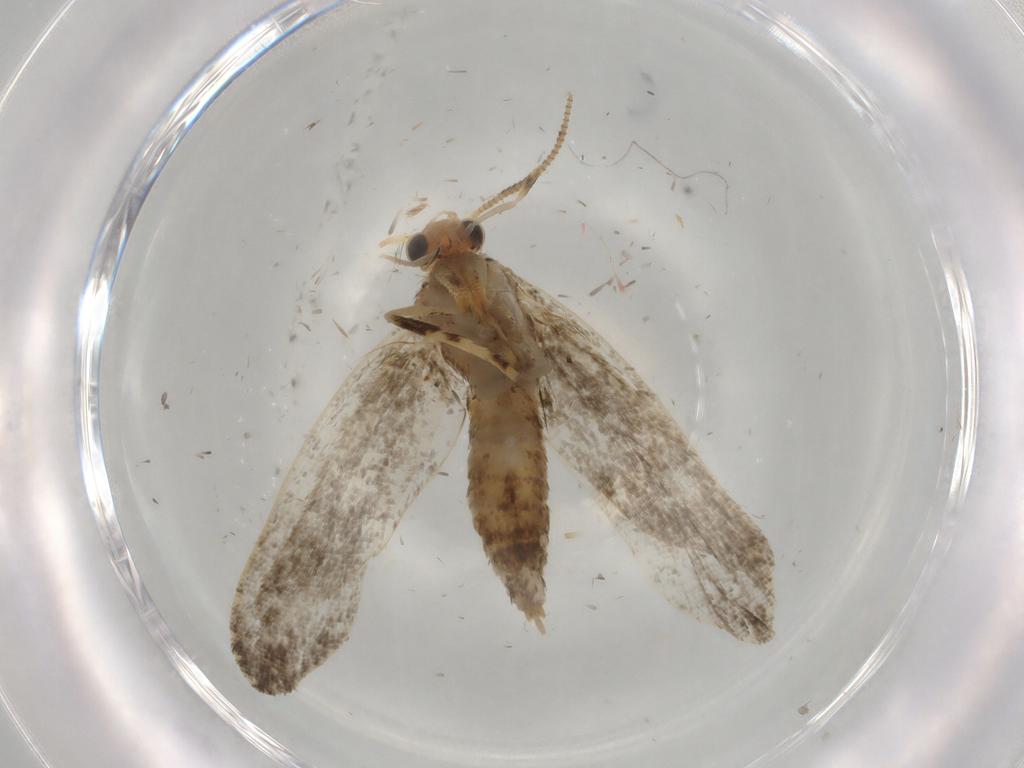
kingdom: Animalia
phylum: Arthropoda
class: Insecta
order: Lepidoptera
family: Tineidae
